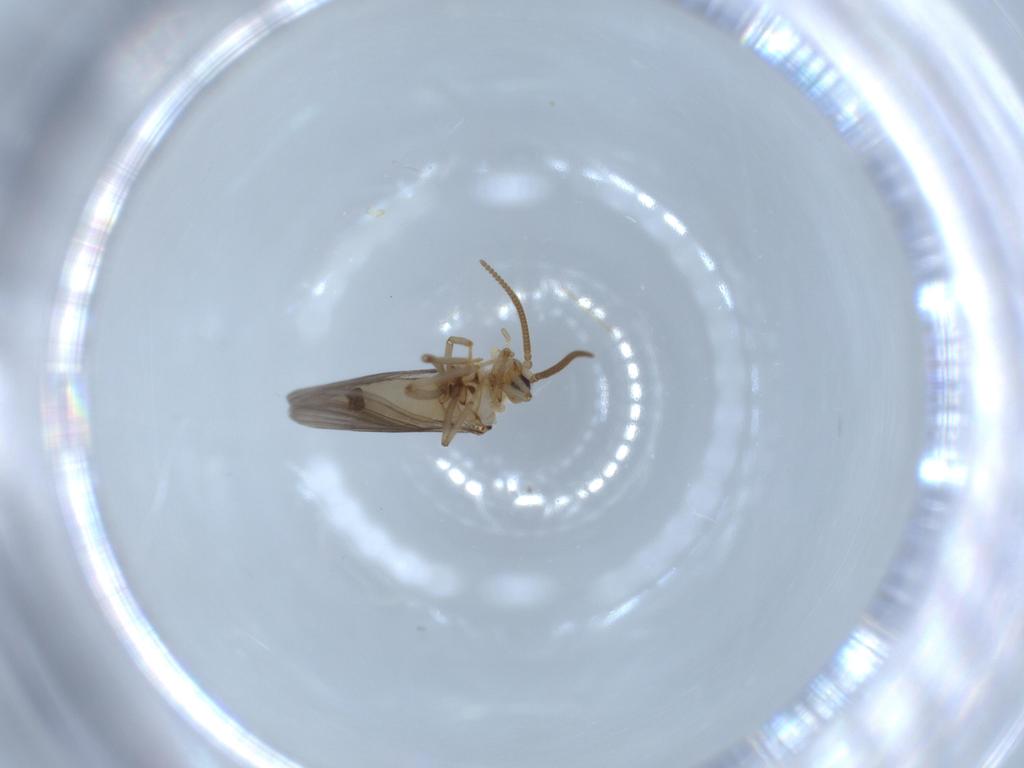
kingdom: Animalia
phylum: Arthropoda
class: Insecta
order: Neuroptera
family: Coniopterygidae
